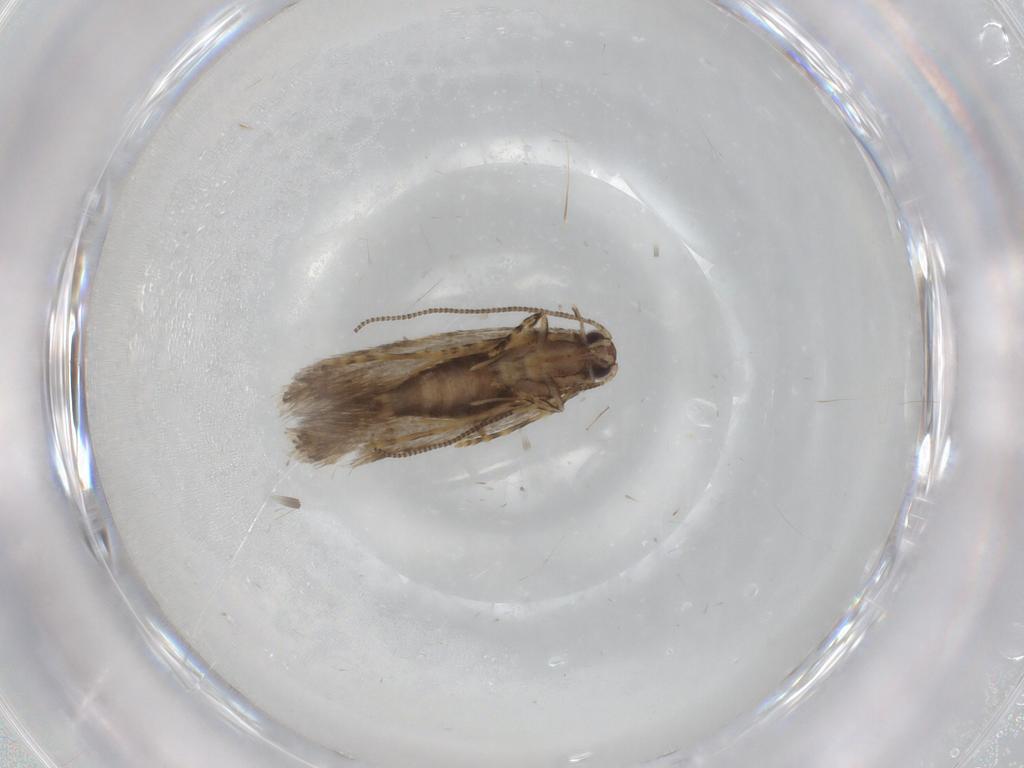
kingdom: Animalia
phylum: Arthropoda
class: Insecta
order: Lepidoptera
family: Tineidae
